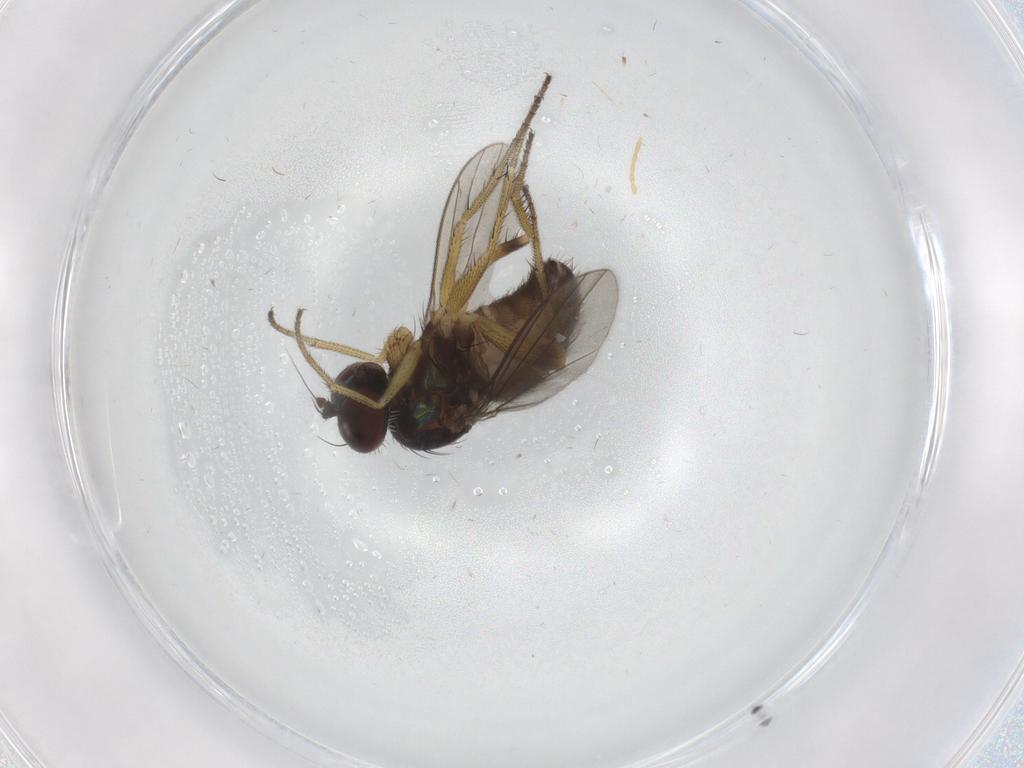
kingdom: Animalia
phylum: Arthropoda
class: Insecta
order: Diptera
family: Dolichopodidae
